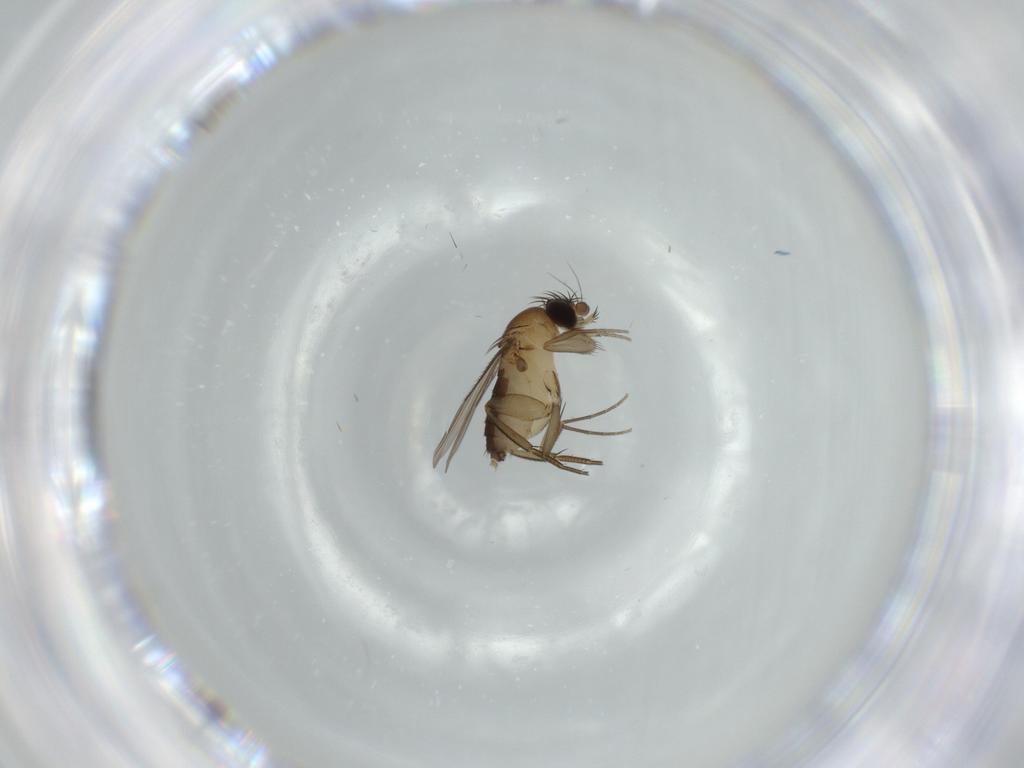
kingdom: Animalia
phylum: Arthropoda
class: Insecta
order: Diptera
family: Phoridae
